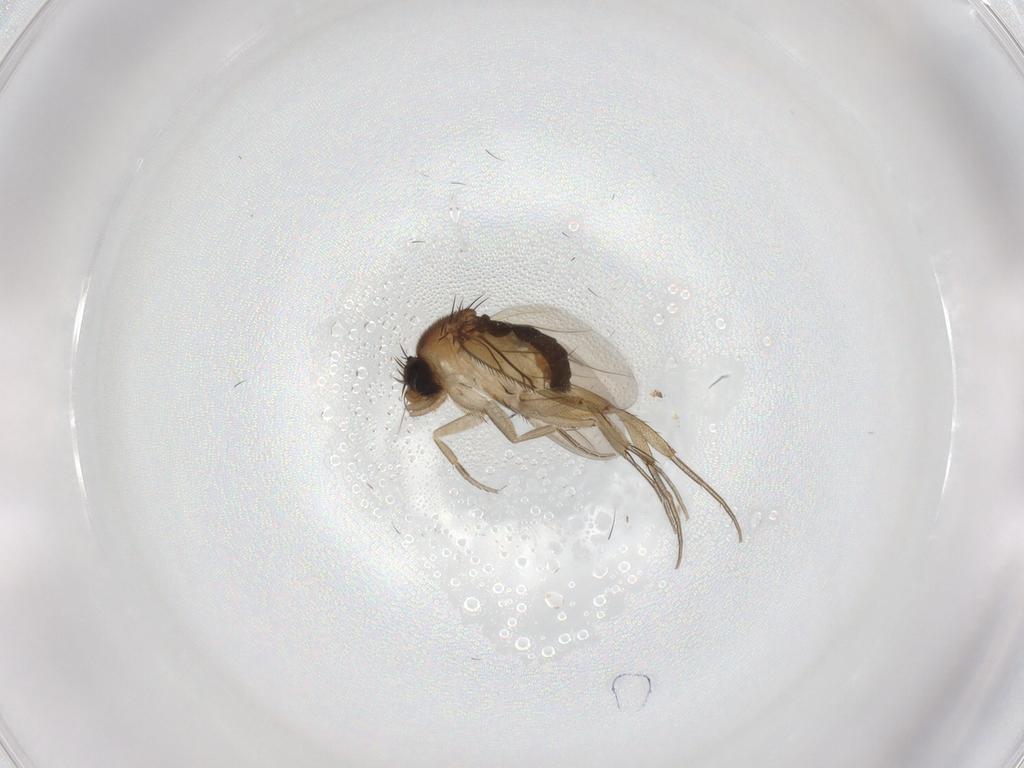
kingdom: Animalia
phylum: Arthropoda
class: Insecta
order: Diptera
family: Phoridae
